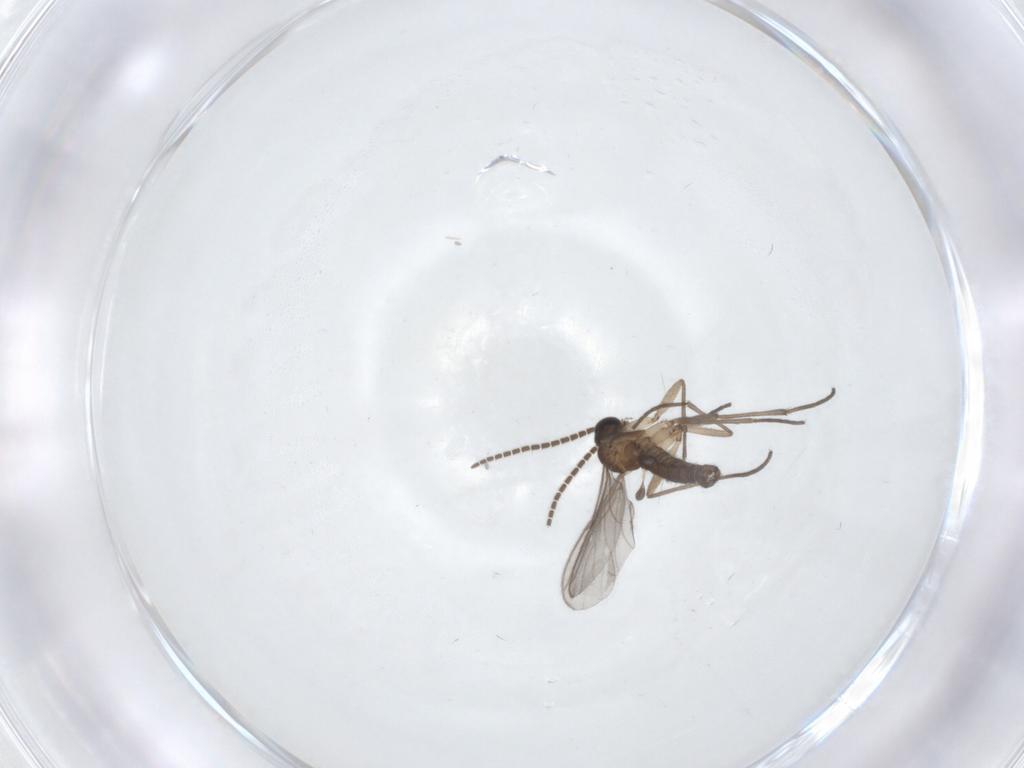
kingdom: Animalia
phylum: Arthropoda
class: Insecta
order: Diptera
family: Sciaridae
